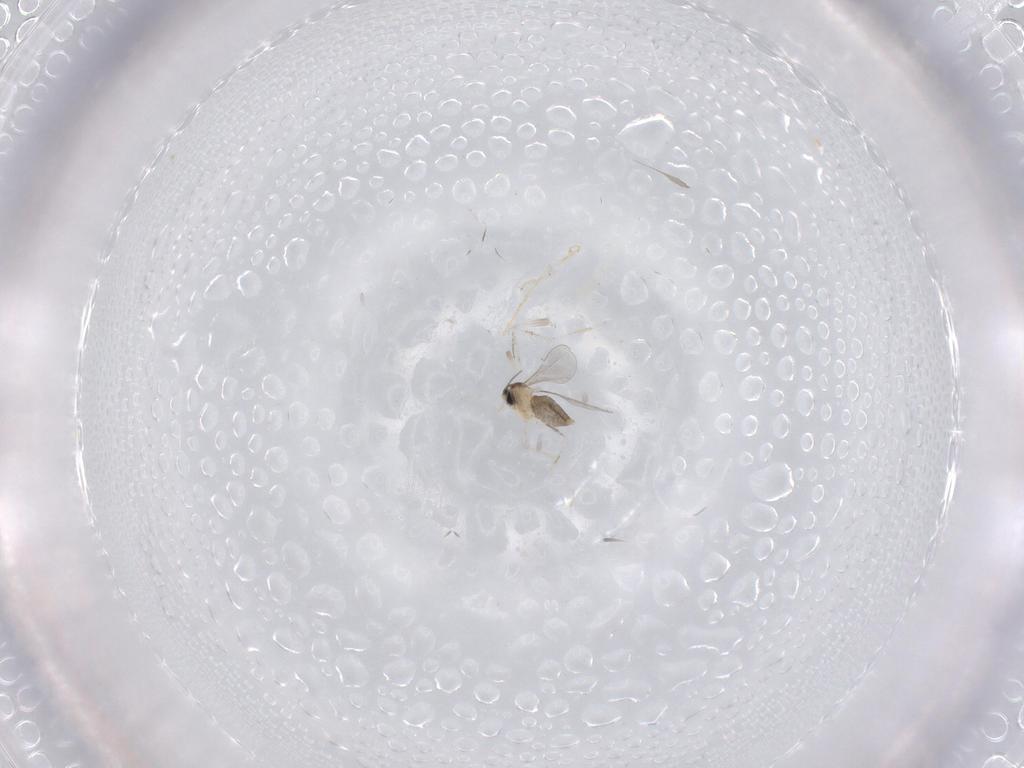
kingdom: Animalia
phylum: Arthropoda
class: Insecta
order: Diptera
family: Cecidomyiidae
